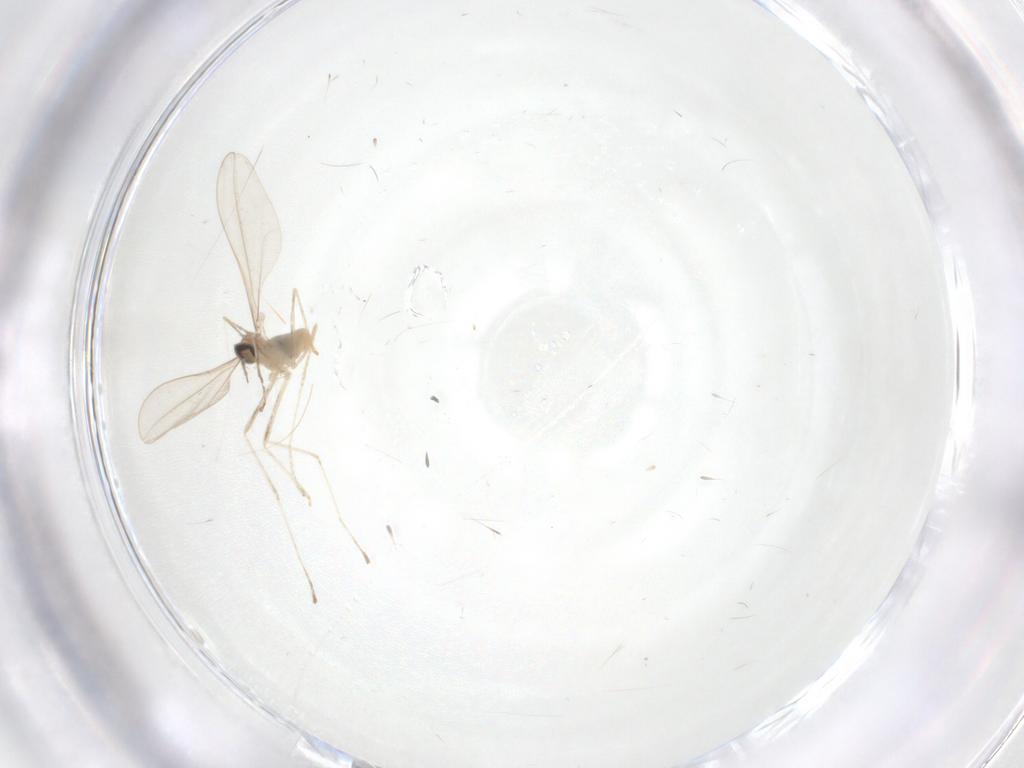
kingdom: Animalia
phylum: Arthropoda
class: Insecta
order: Diptera
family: Cecidomyiidae
